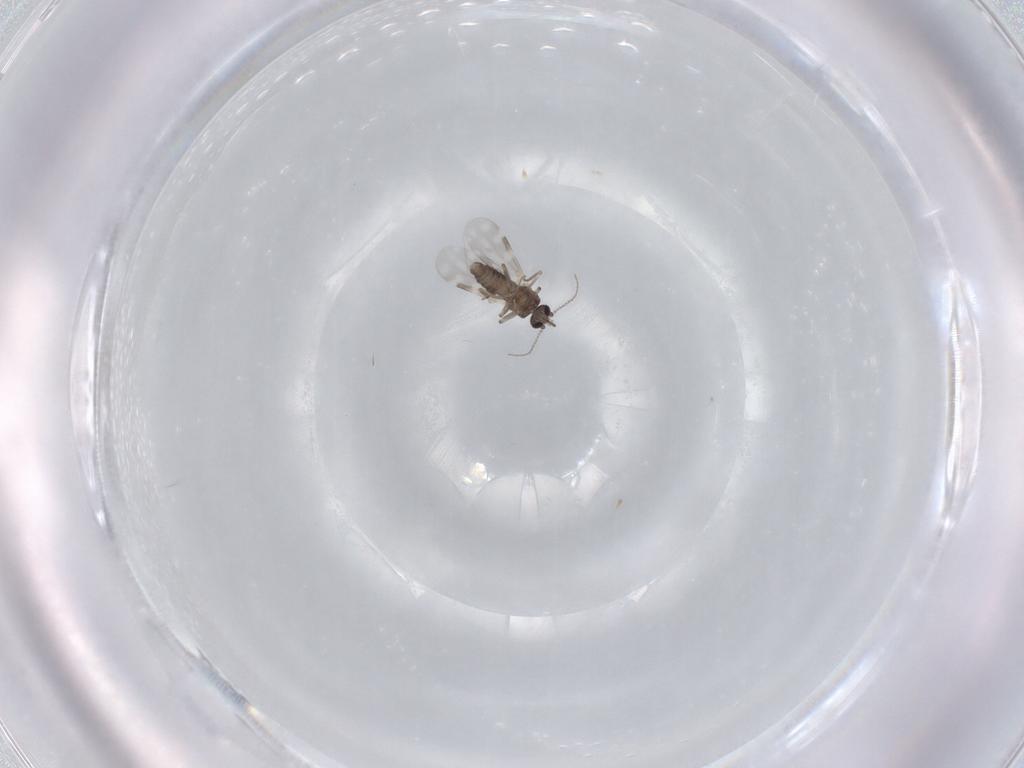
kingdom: Animalia
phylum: Arthropoda
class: Insecta
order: Diptera
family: Ceratopogonidae
